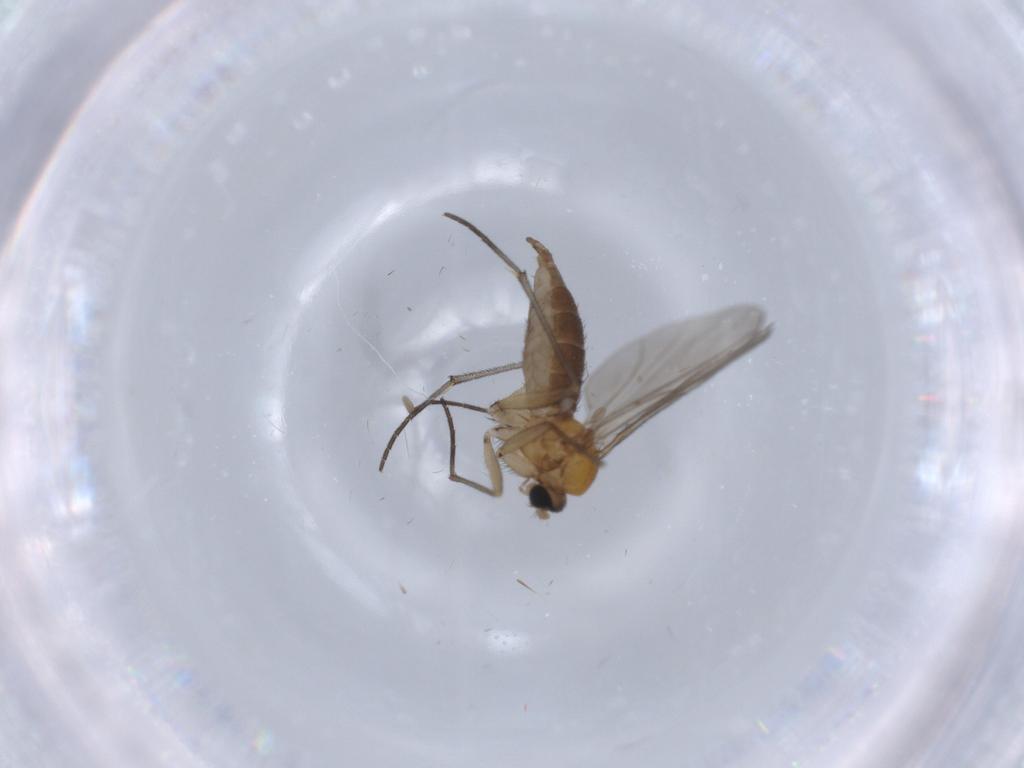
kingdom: Animalia
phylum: Arthropoda
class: Insecta
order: Diptera
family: Sciaridae
